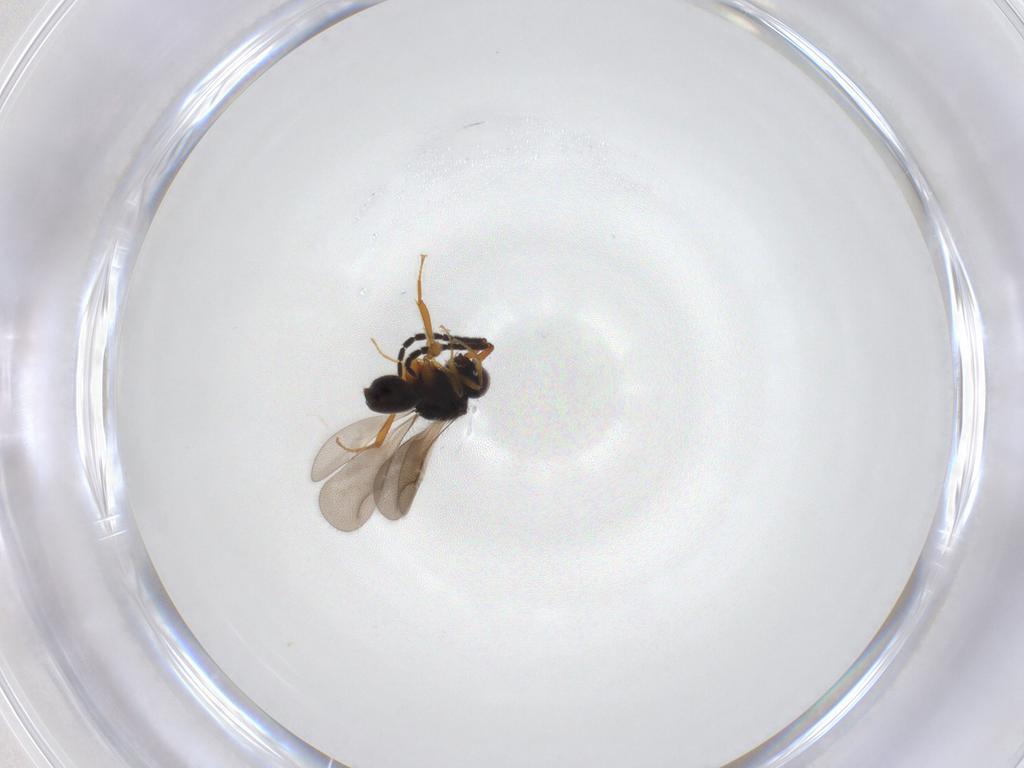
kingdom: Animalia
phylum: Arthropoda
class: Insecta
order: Hymenoptera
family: Ceraphronidae
